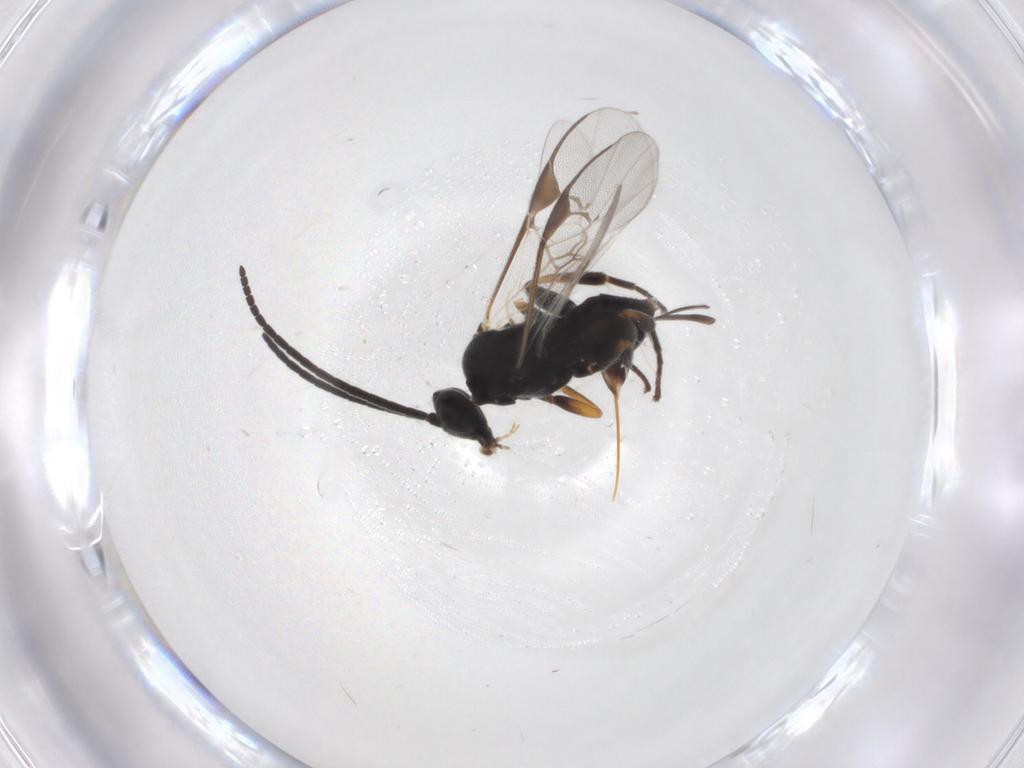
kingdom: Animalia
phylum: Arthropoda
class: Insecta
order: Hymenoptera
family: Braconidae
